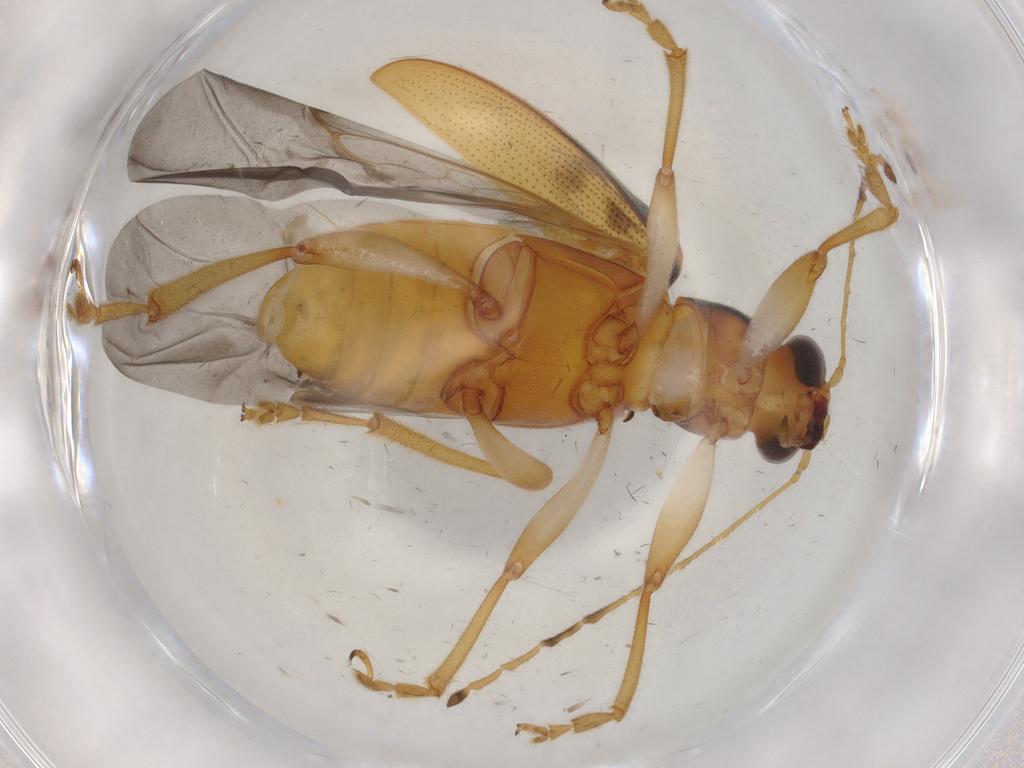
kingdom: Animalia
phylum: Arthropoda
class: Insecta
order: Coleoptera
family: Chrysomelidae
